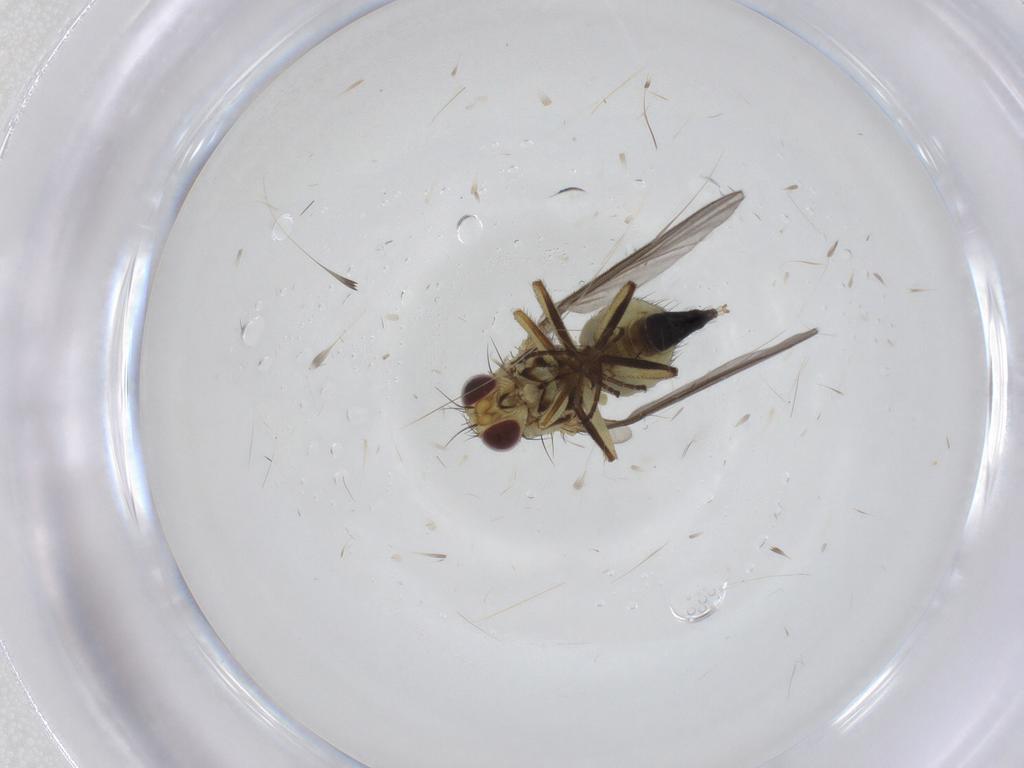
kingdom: Animalia
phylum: Arthropoda
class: Insecta
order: Diptera
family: Agromyzidae
